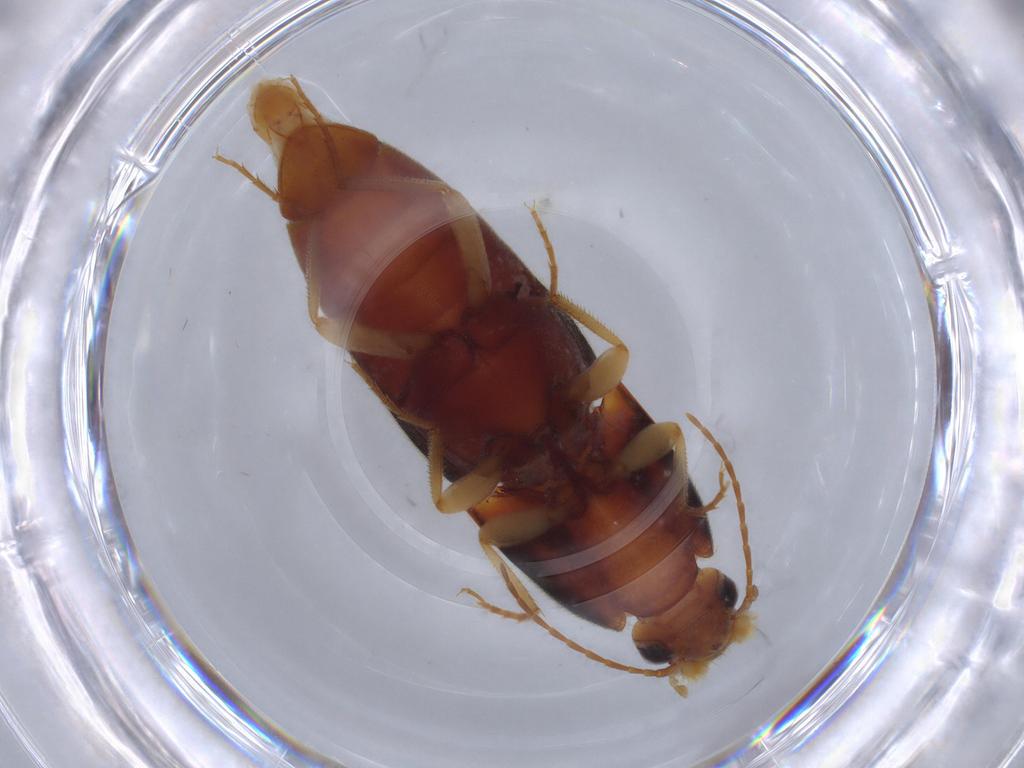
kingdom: Animalia
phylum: Arthropoda
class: Insecta
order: Coleoptera
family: Elateridae
